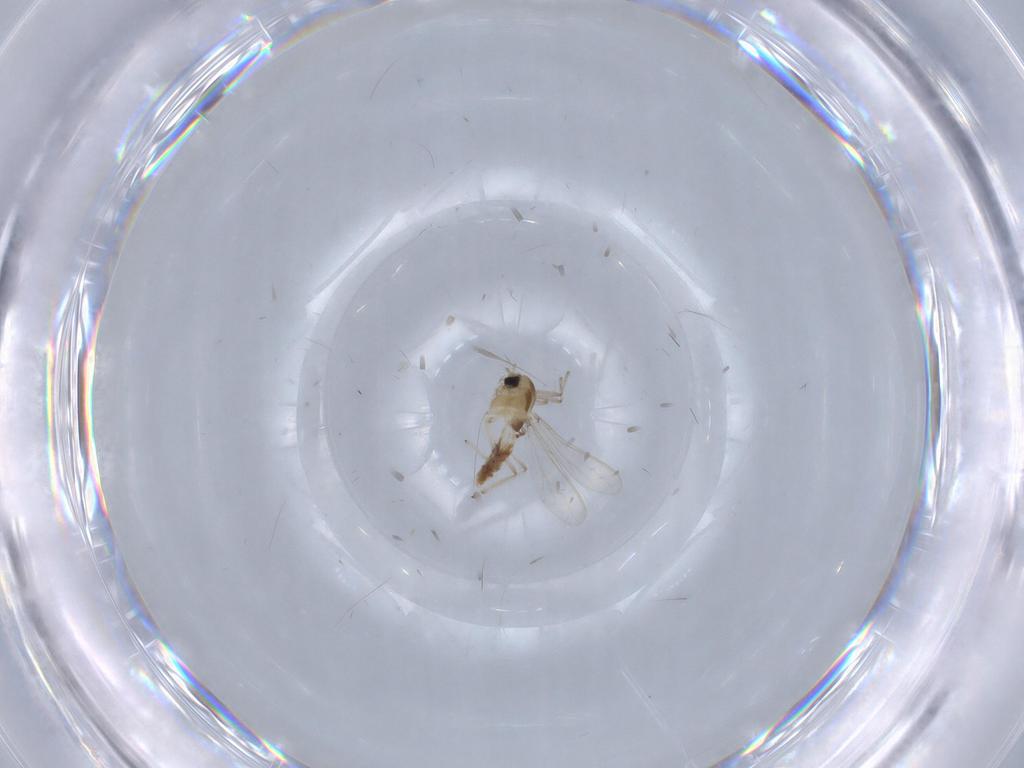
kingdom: Animalia
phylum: Arthropoda
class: Insecta
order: Diptera
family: Chironomidae
